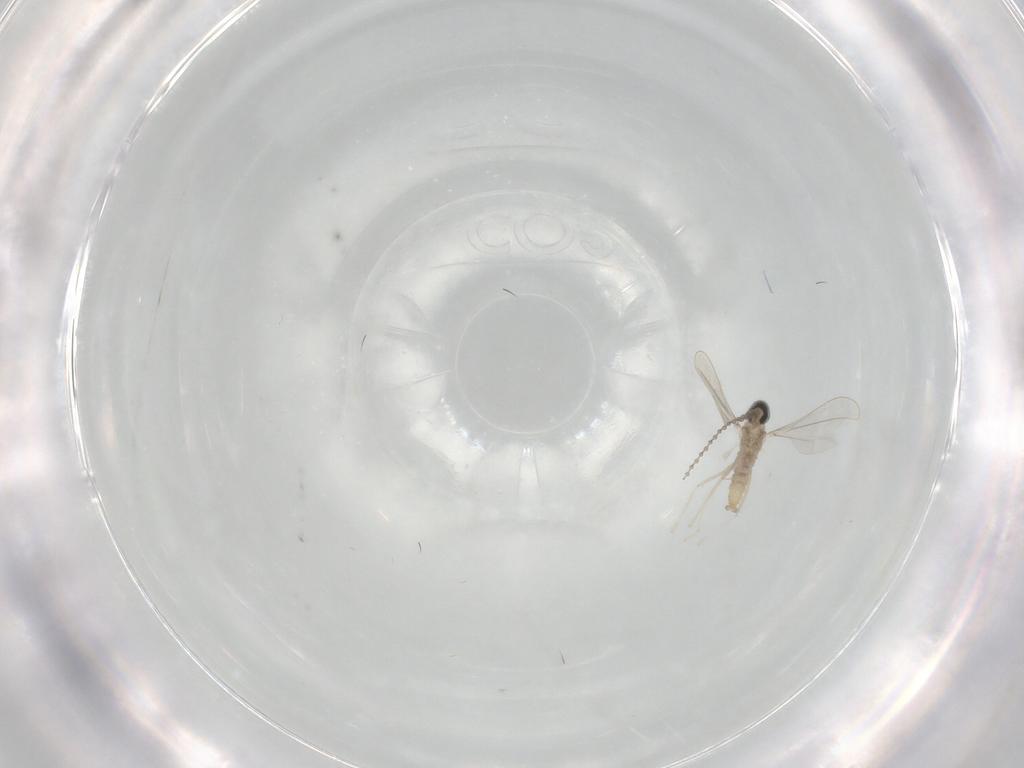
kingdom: Animalia
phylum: Arthropoda
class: Insecta
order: Diptera
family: Cecidomyiidae
